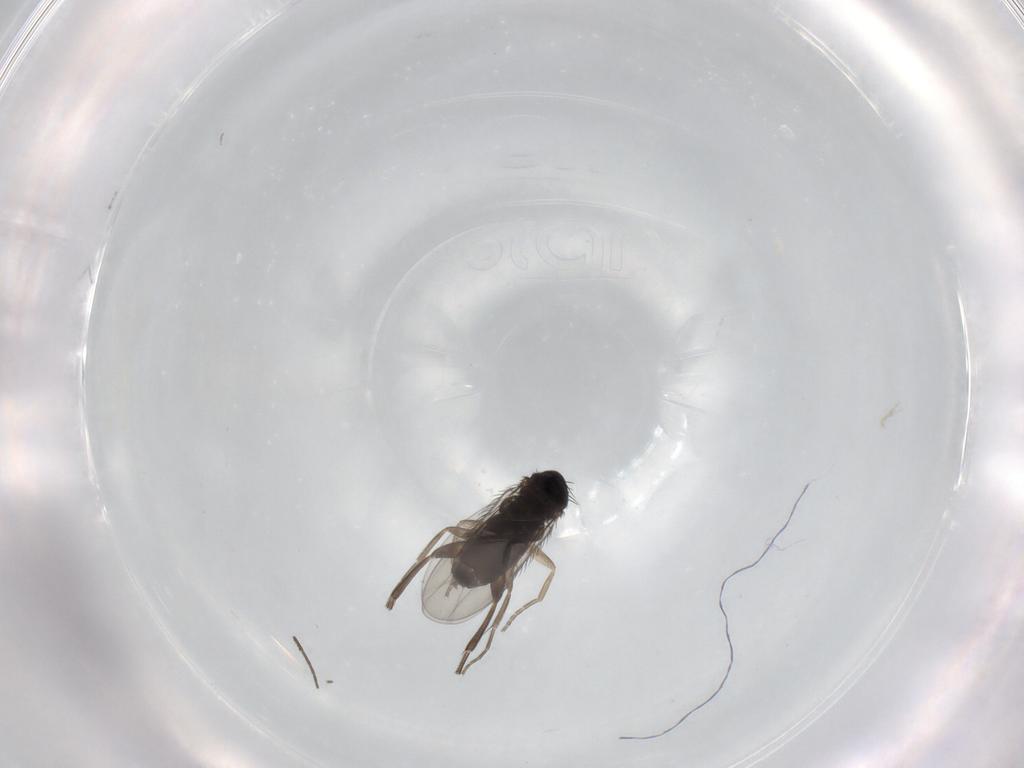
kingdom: Animalia
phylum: Arthropoda
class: Insecta
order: Diptera
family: Phoridae
